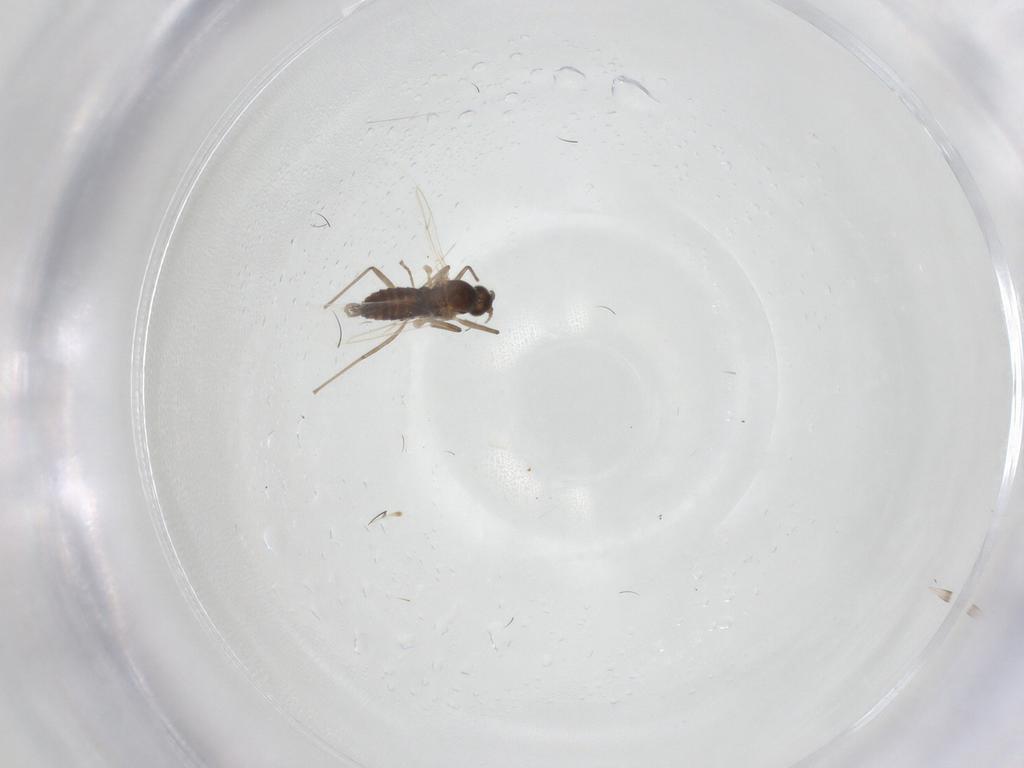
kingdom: Animalia
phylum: Arthropoda
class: Insecta
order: Diptera
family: Cecidomyiidae
